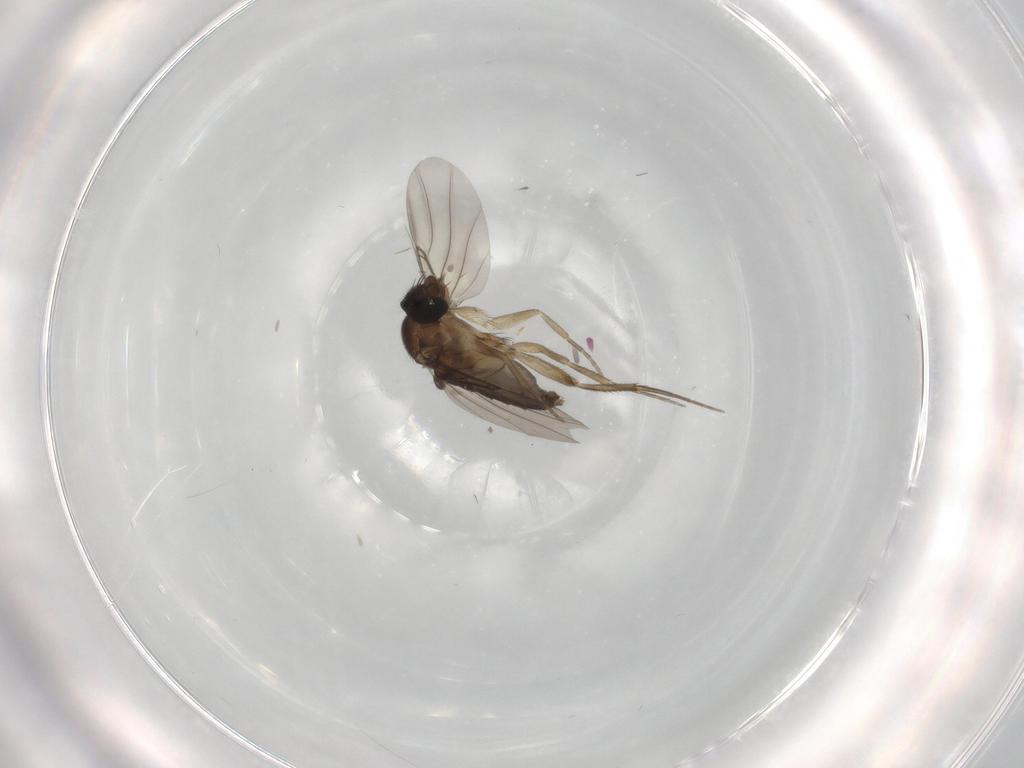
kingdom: Animalia
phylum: Arthropoda
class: Insecta
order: Diptera
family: Phoridae
